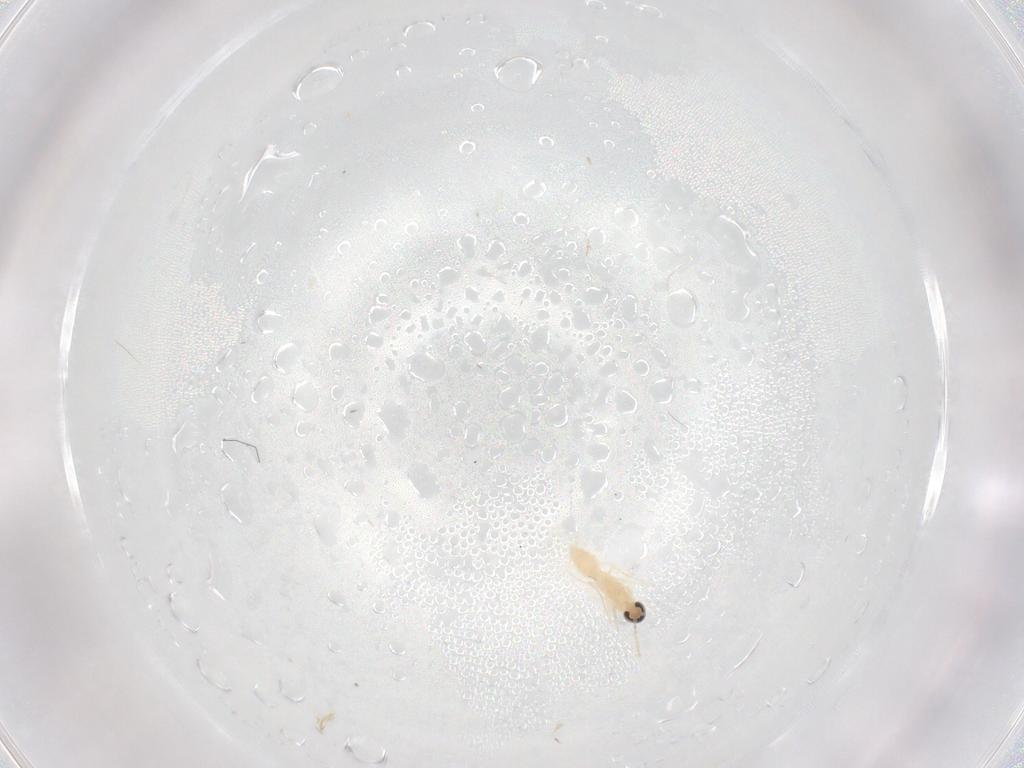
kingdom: Animalia
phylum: Arthropoda
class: Insecta
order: Diptera
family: Cecidomyiidae
